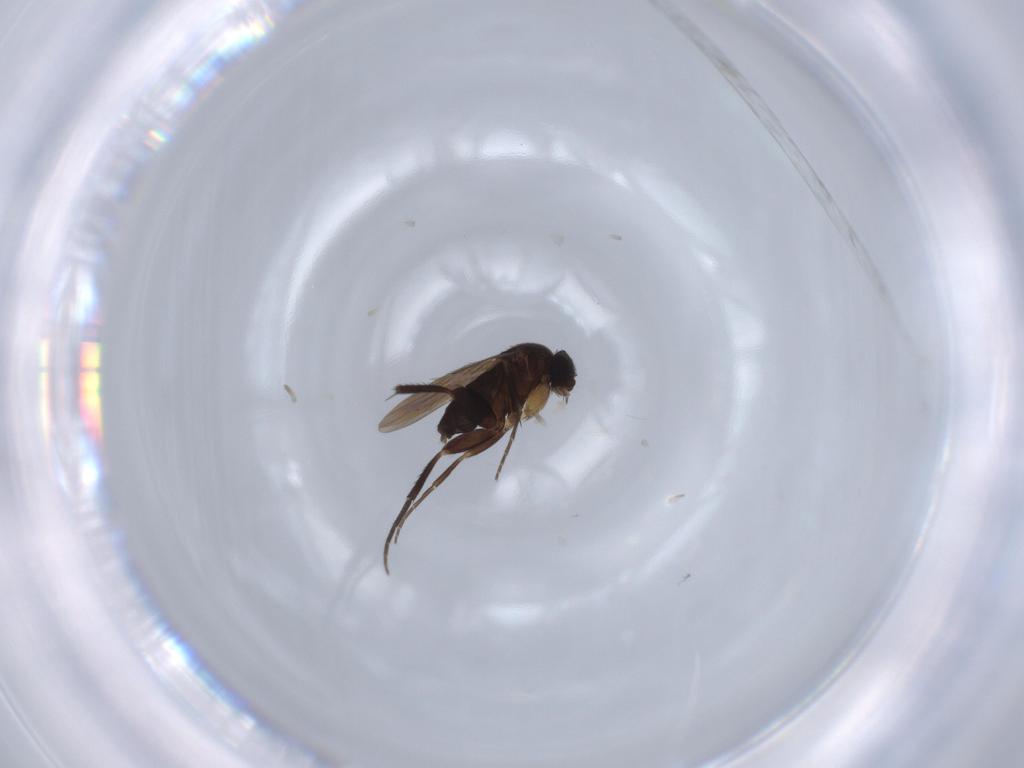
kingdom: Animalia
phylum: Arthropoda
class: Insecta
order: Diptera
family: Phoridae
